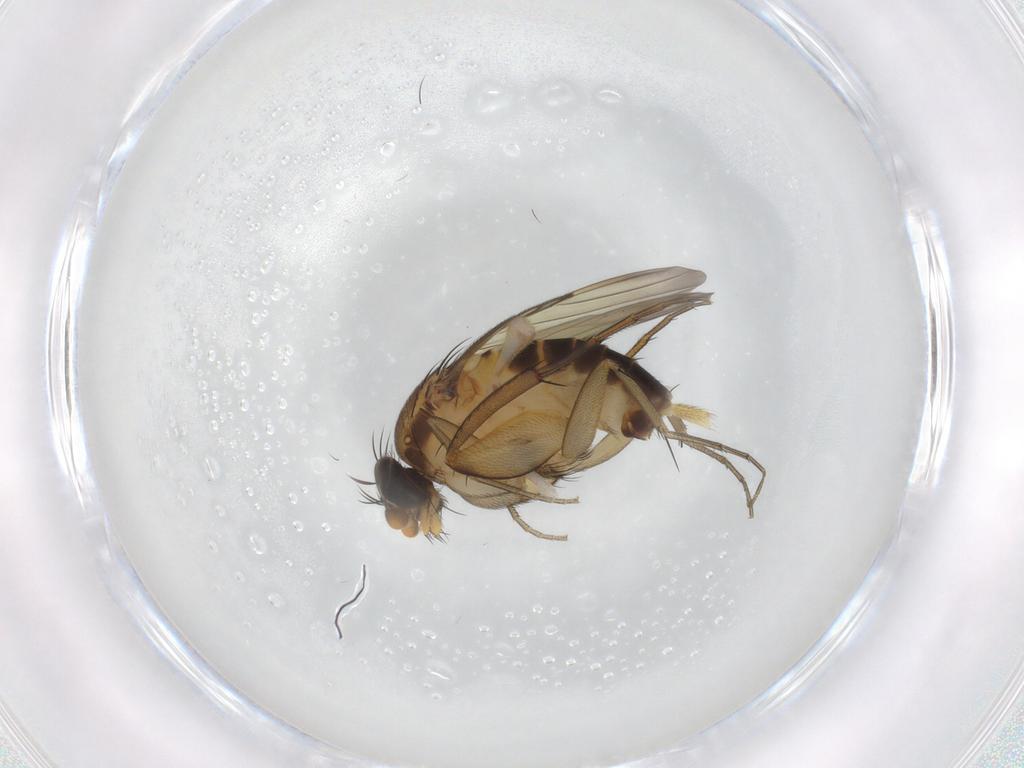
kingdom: Animalia
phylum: Arthropoda
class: Insecta
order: Diptera
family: Phoridae
